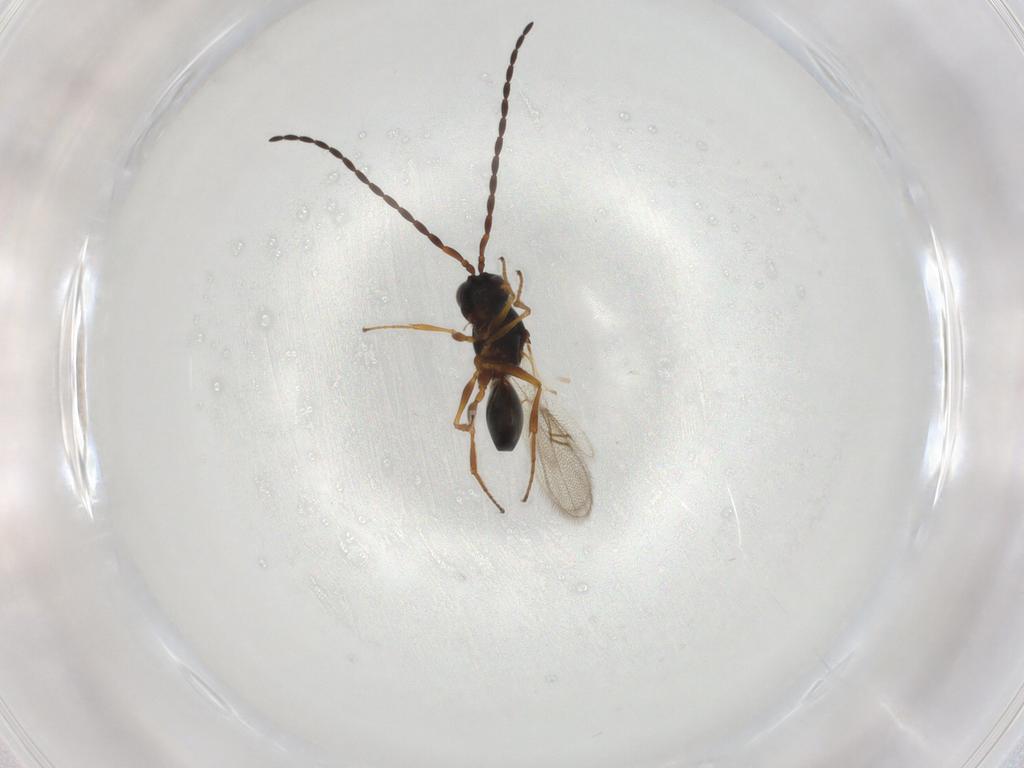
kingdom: Animalia
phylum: Arthropoda
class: Insecta
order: Hymenoptera
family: Figitidae
